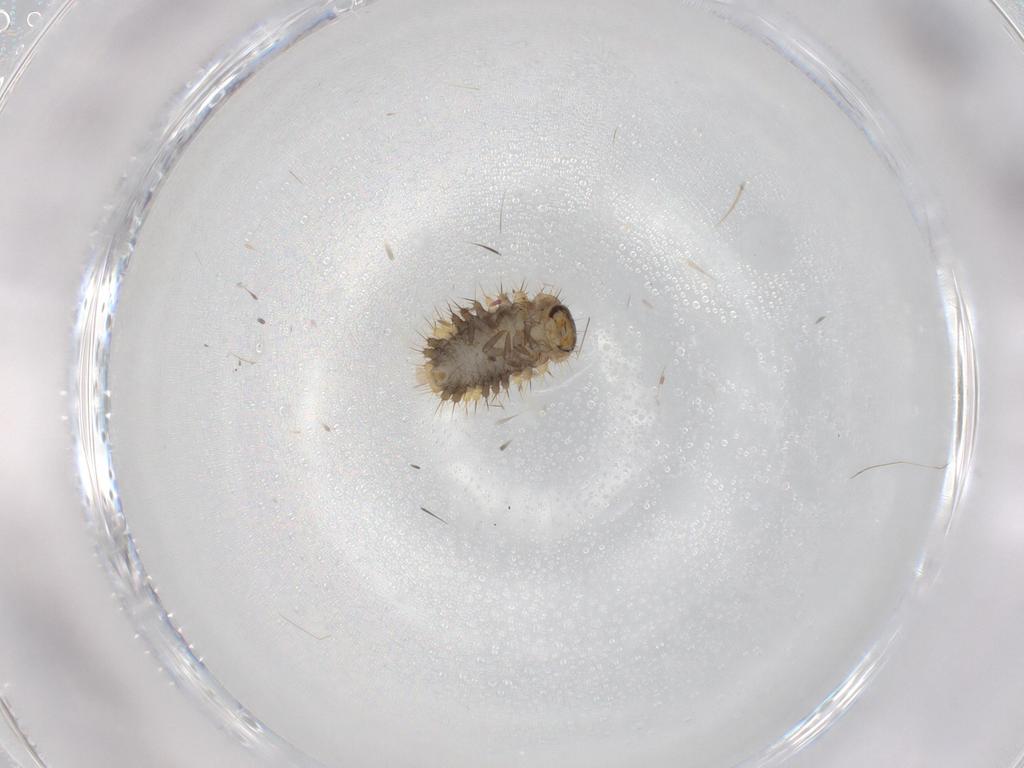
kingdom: Animalia
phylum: Arthropoda
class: Insecta
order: Coleoptera
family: Coccinellidae
